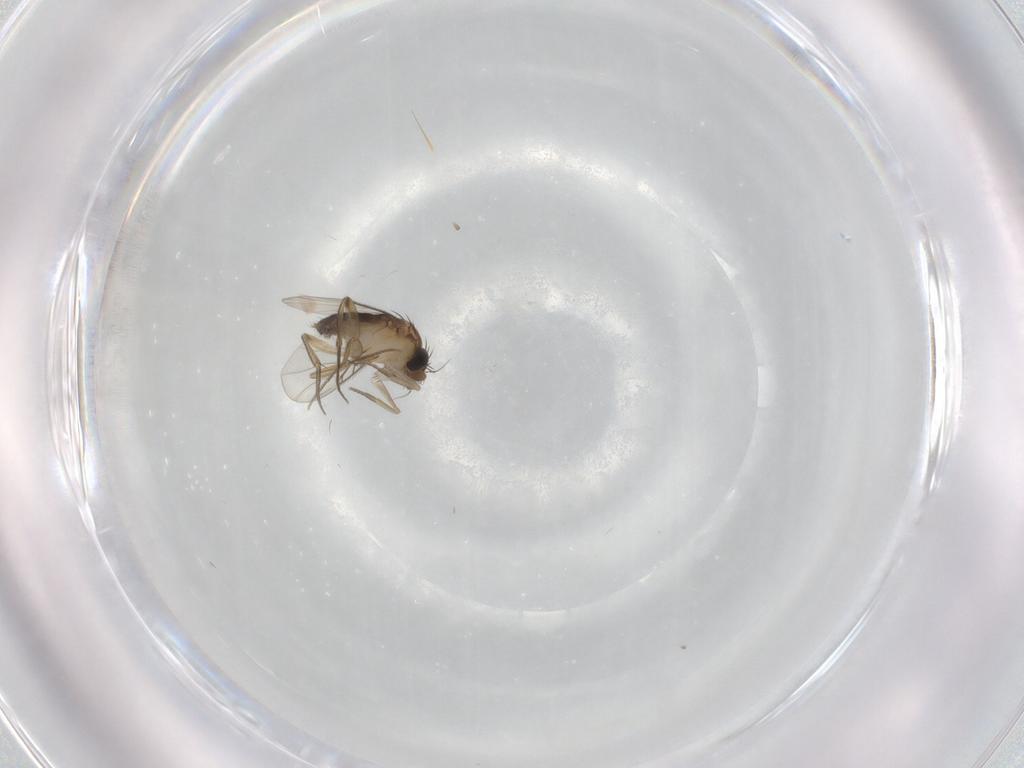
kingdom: Animalia
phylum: Arthropoda
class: Insecta
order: Diptera
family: Phoridae
